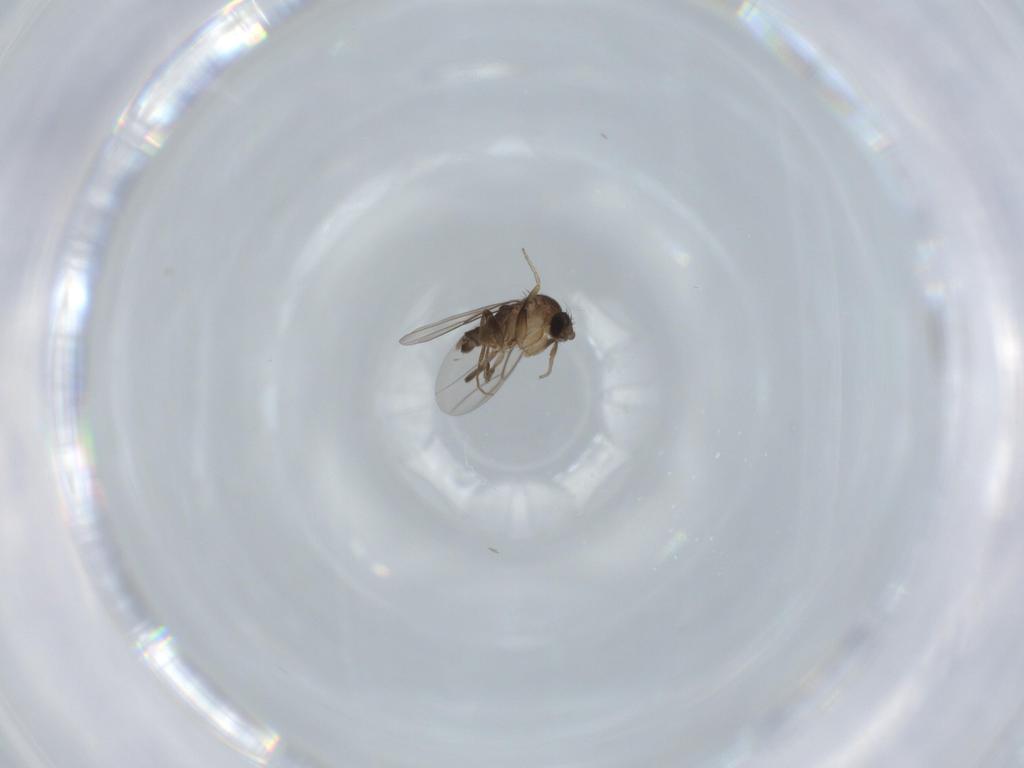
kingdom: Animalia
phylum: Arthropoda
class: Insecta
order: Diptera
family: Phoridae
